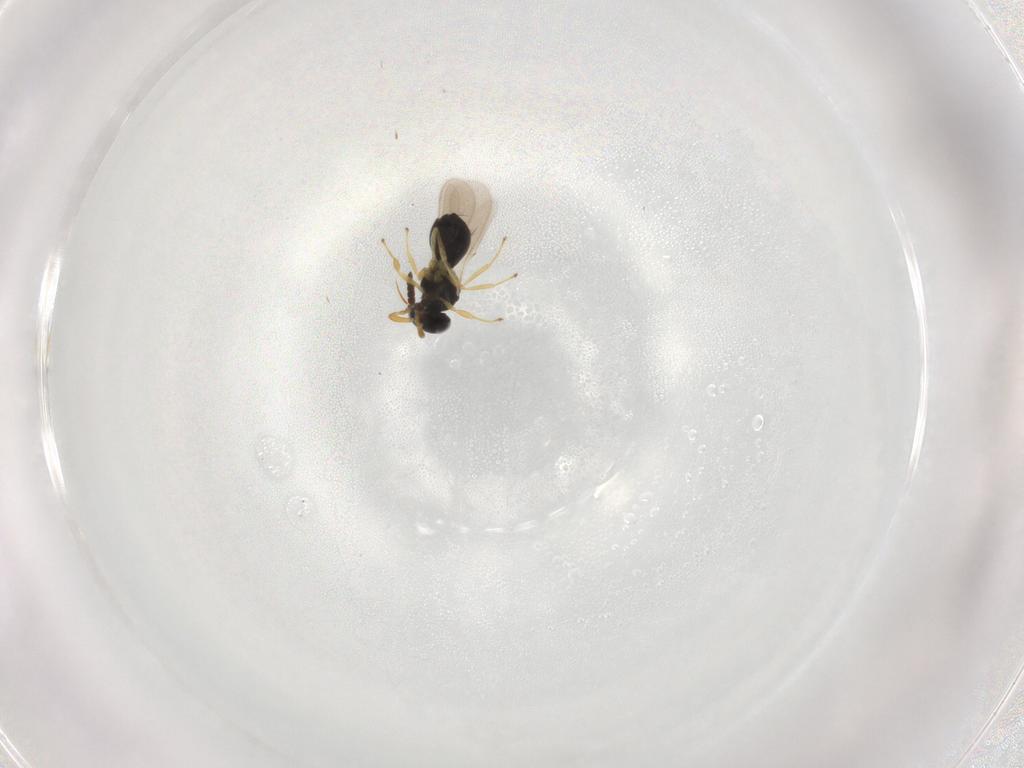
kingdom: Animalia
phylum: Arthropoda
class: Insecta
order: Hymenoptera
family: Scelionidae
